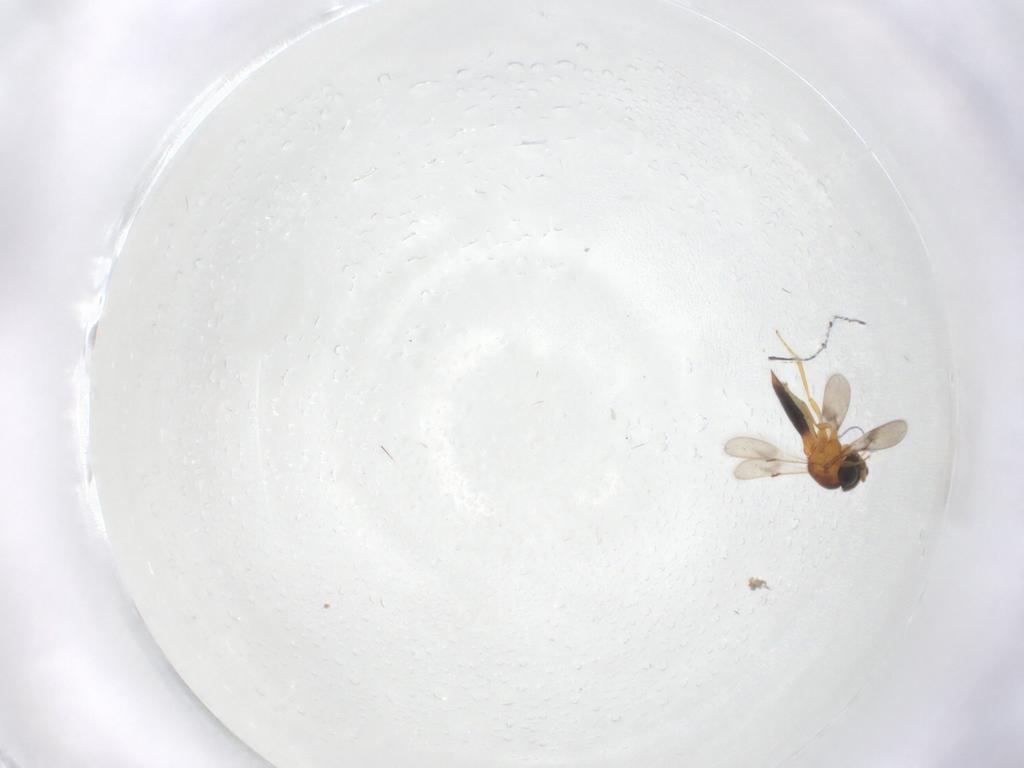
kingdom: Animalia
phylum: Arthropoda
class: Insecta
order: Hymenoptera
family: Scelionidae
